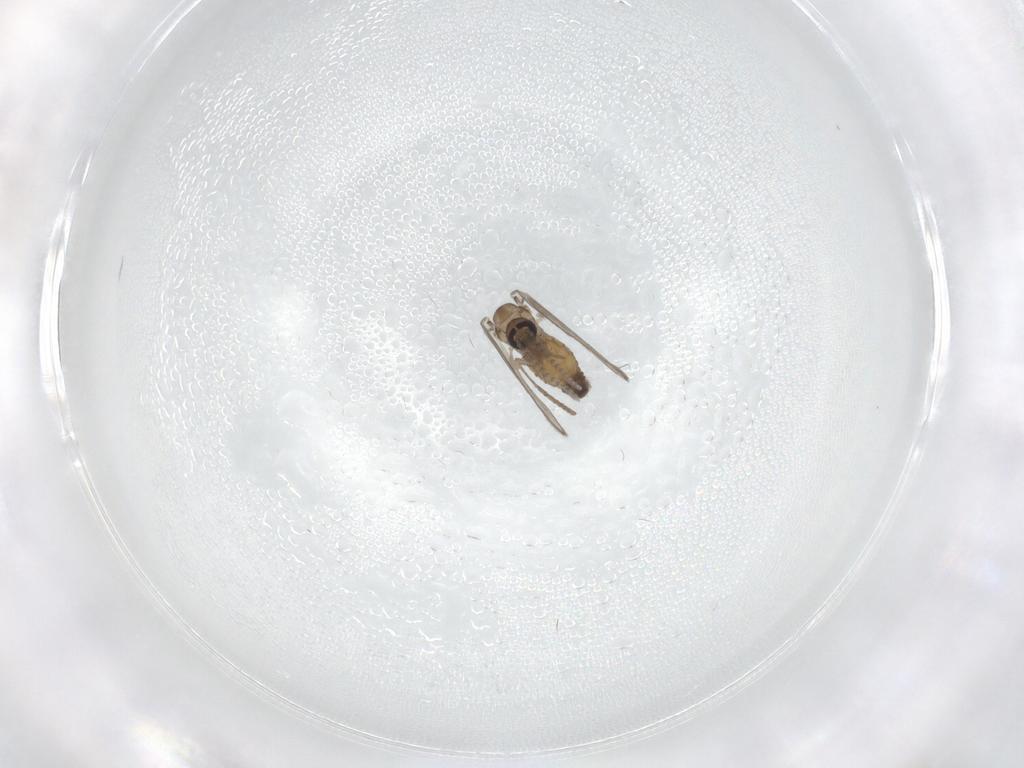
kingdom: Animalia
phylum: Arthropoda
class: Insecta
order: Diptera
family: Psychodidae
